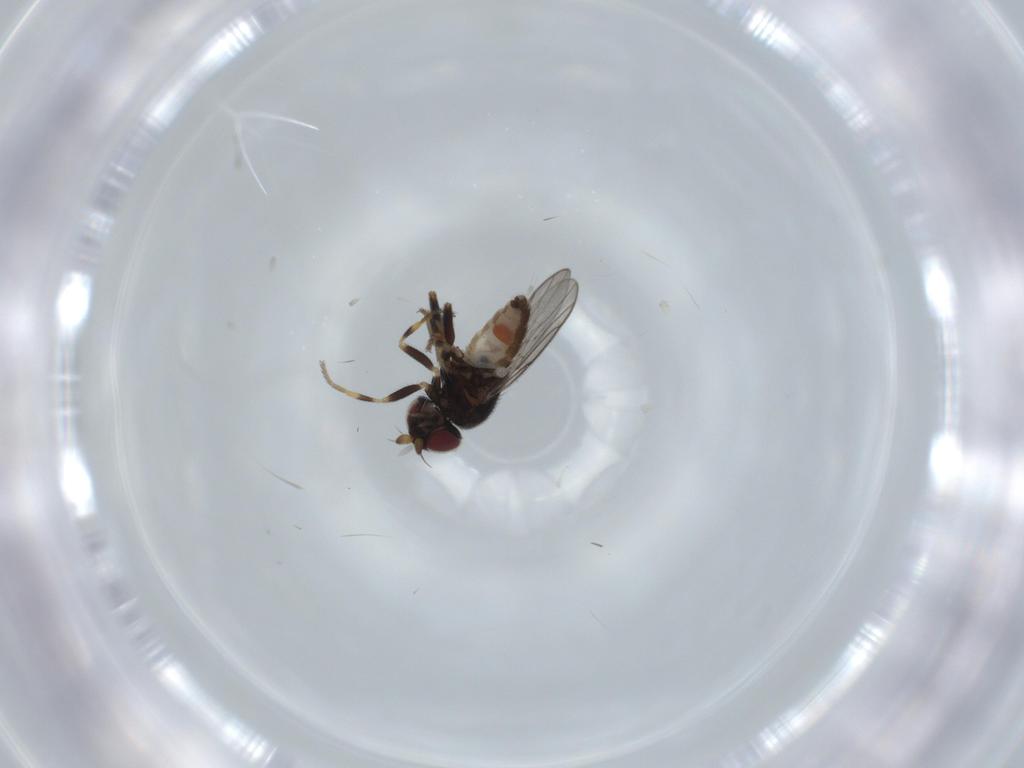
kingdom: Animalia
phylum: Arthropoda
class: Insecta
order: Diptera
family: Chloropidae
